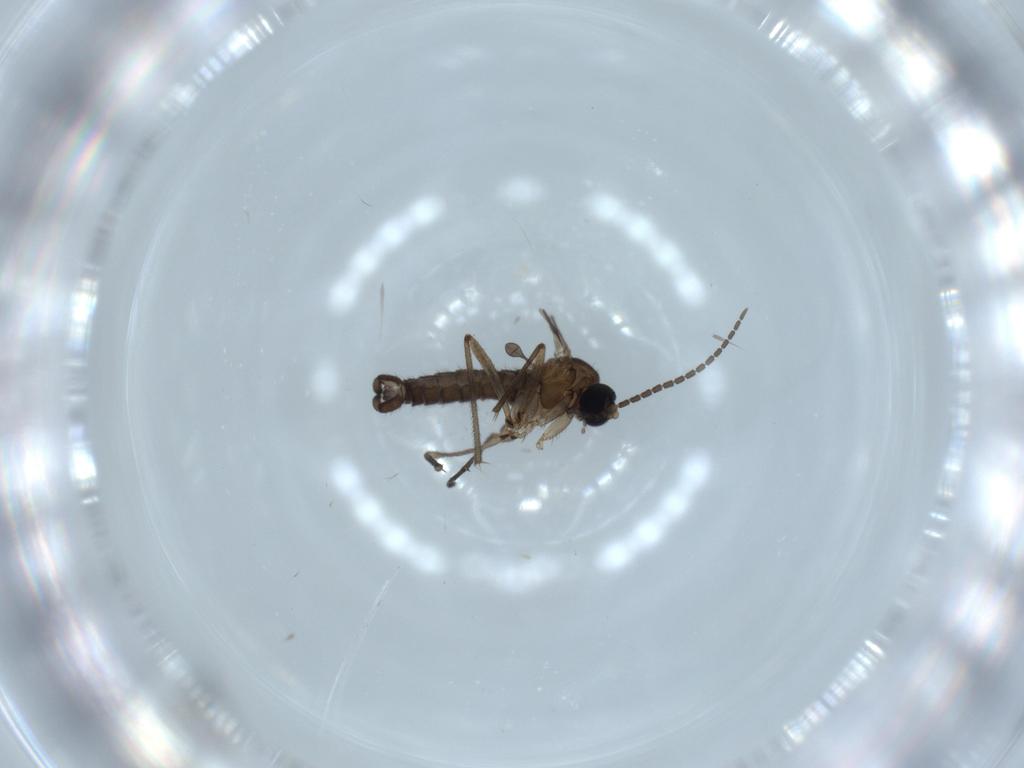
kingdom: Animalia
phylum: Arthropoda
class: Insecta
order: Diptera
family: Sciaridae
